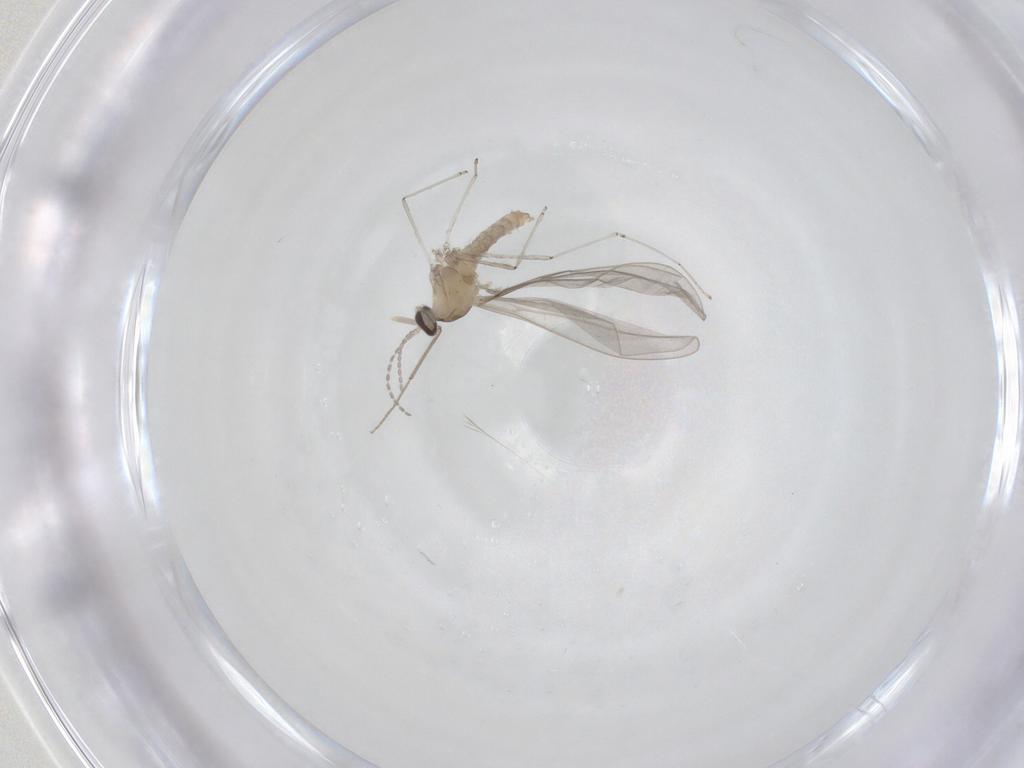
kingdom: Animalia
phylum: Arthropoda
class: Insecta
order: Diptera
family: Chironomidae
